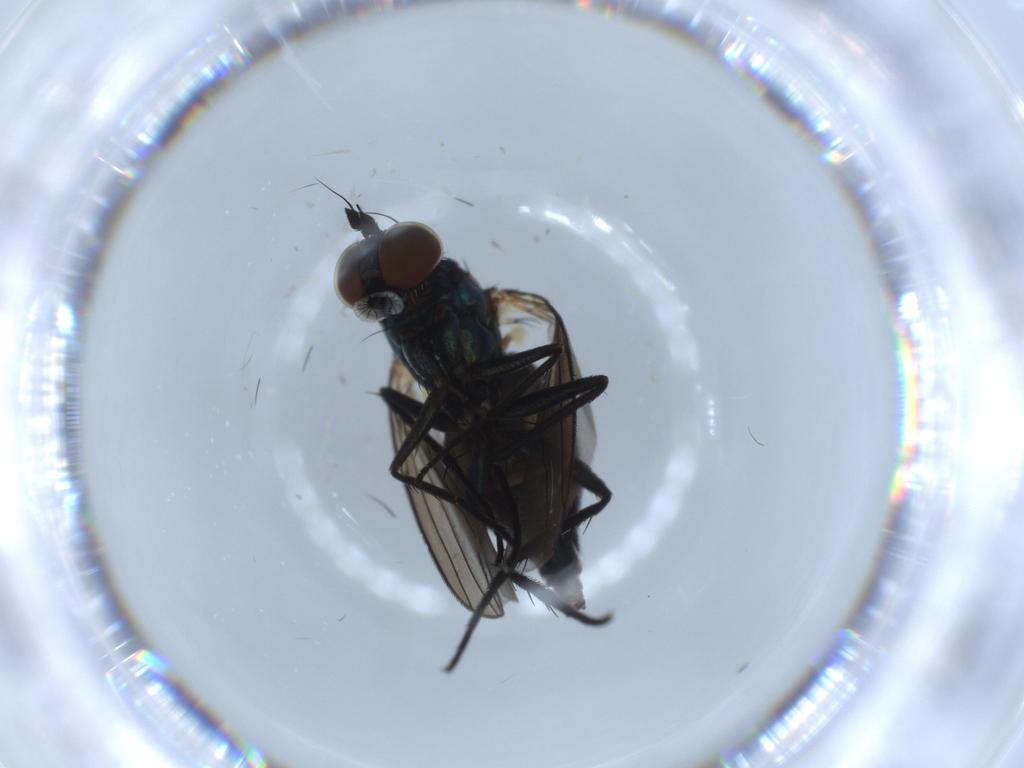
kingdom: Animalia
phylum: Arthropoda
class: Insecta
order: Diptera
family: Dolichopodidae
